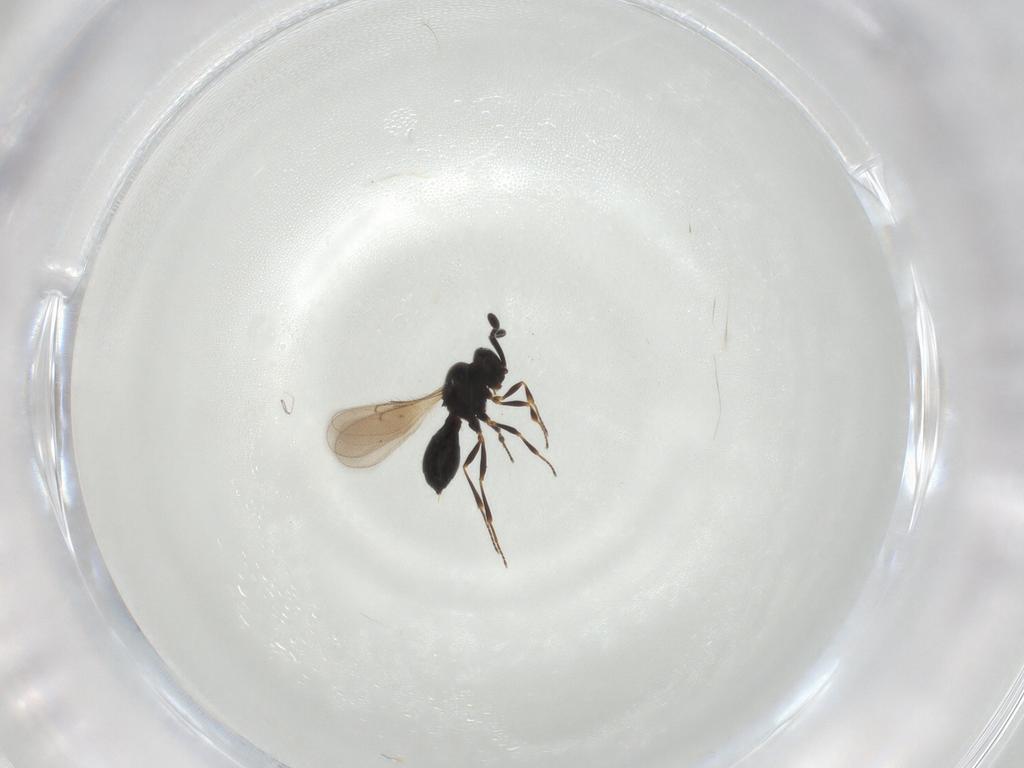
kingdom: Animalia
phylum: Arthropoda
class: Insecta
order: Hymenoptera
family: Scelionidae
